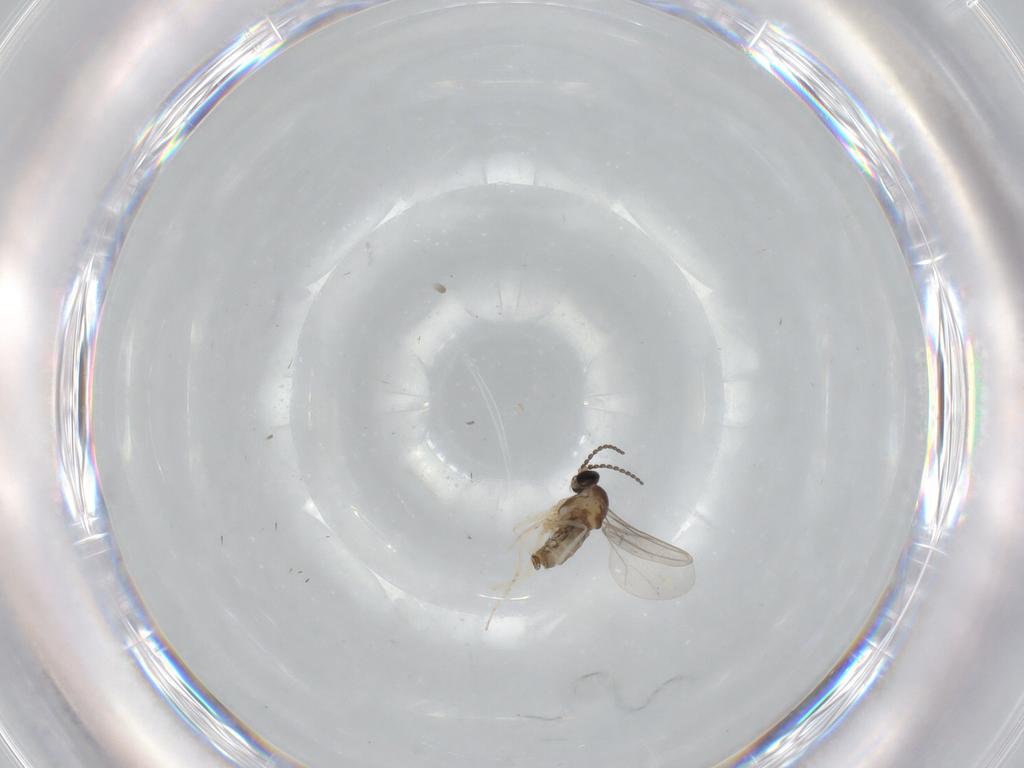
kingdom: Animalia
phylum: Arthropoda
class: Insecta
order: Diptera
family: Cecidomyiidae
